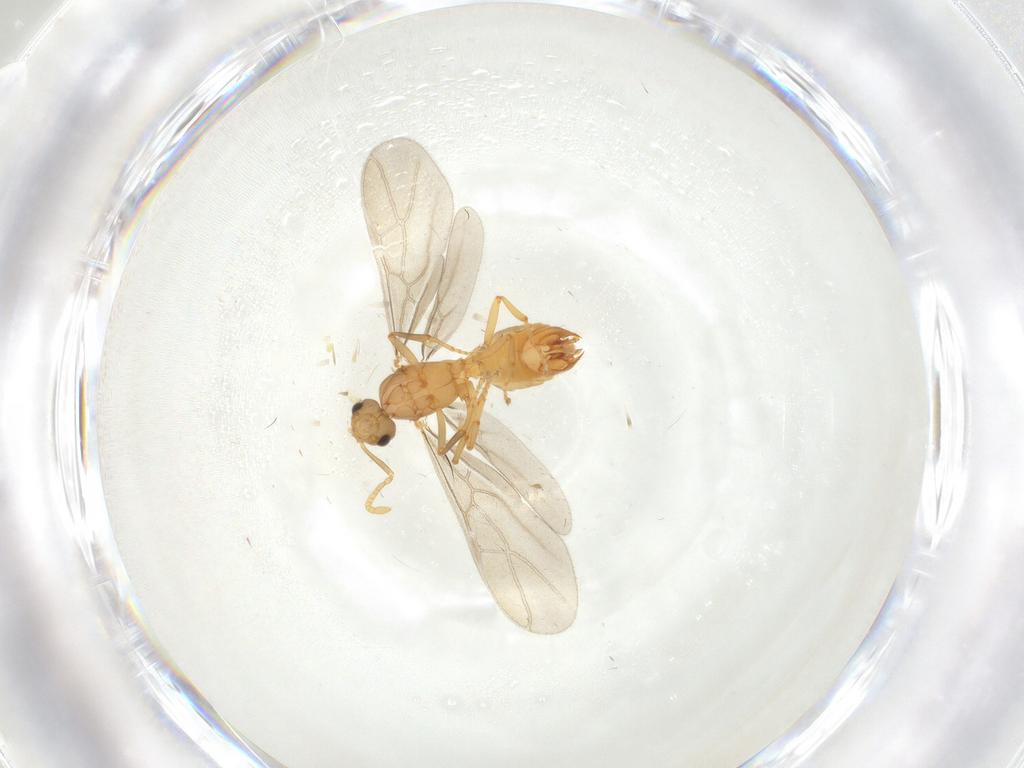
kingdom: Animalia
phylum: Arthropoda
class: Insecta
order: Hymenoptera
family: Formicidae
